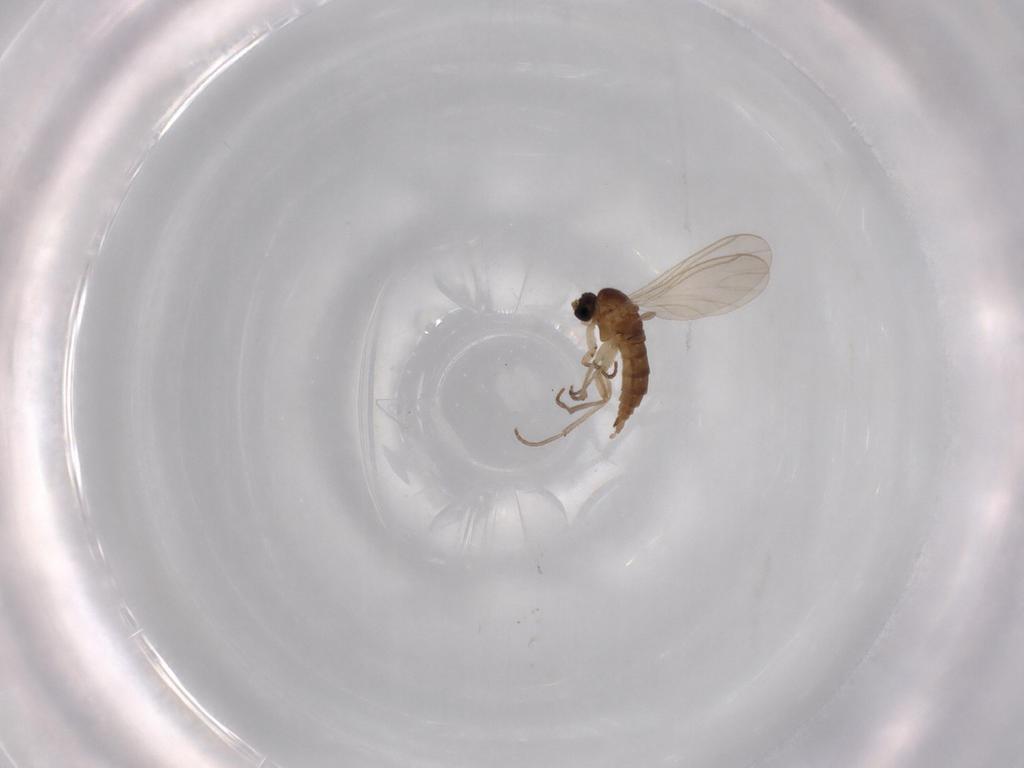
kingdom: Animalia
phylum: Arthropoda
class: Insecta
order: Diptera
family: Sciaridae
